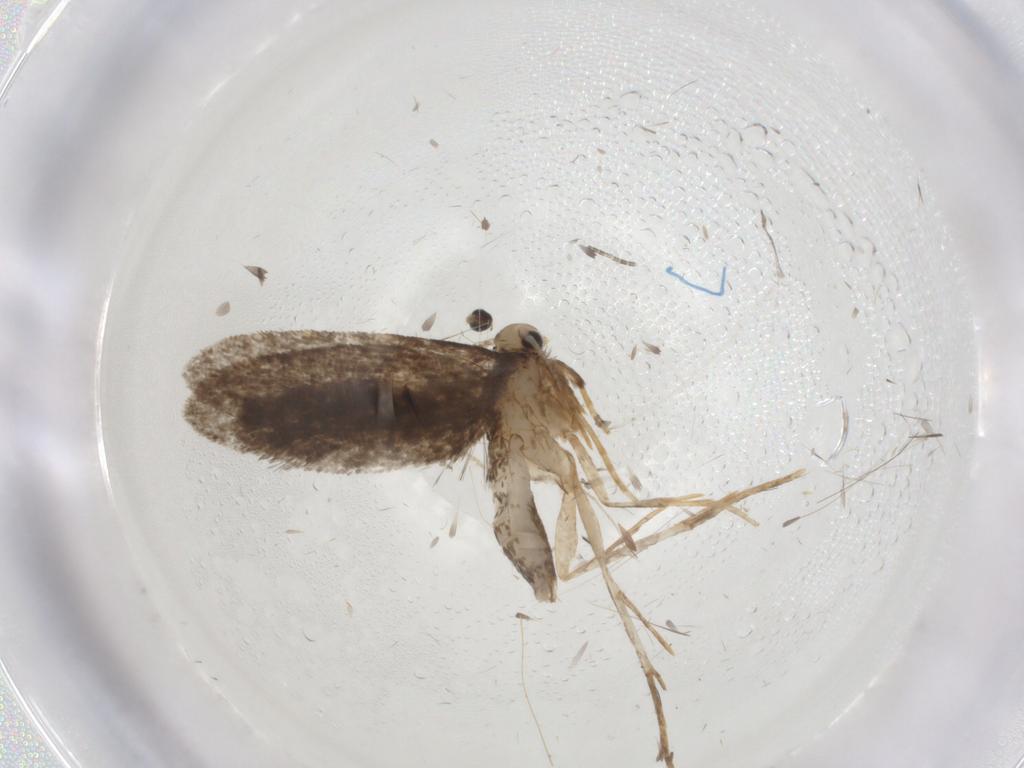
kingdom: Animalia
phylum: Arthropoda
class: Insecta
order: Lepidoptera
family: Psychidae
